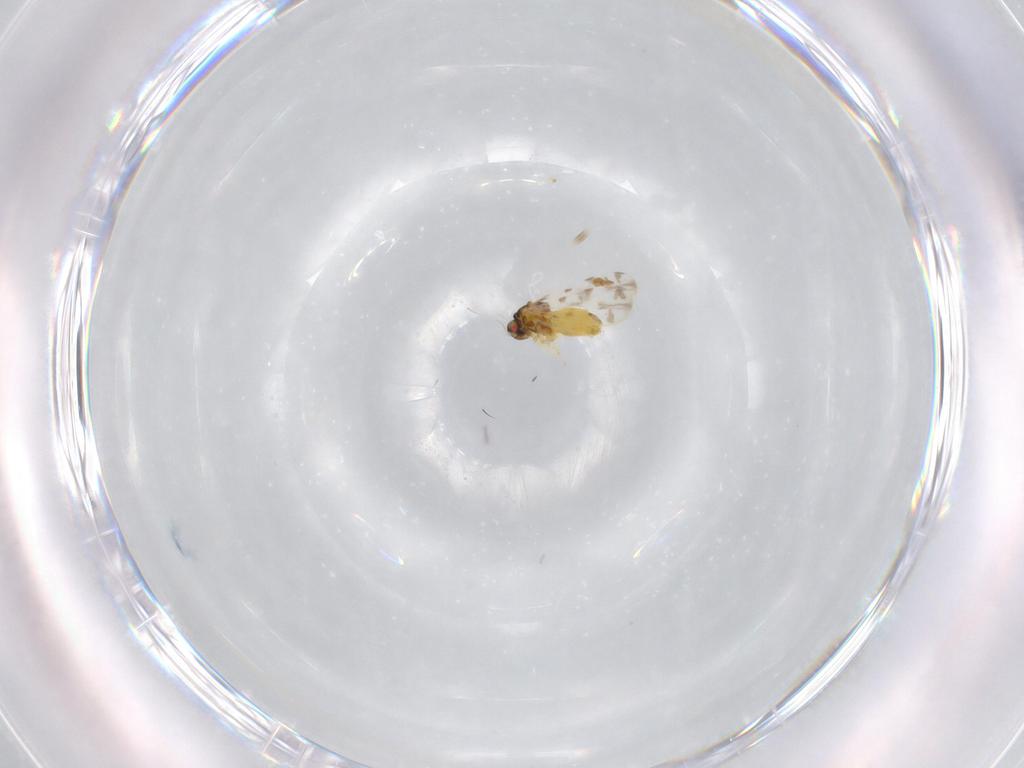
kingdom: Animalia
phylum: Arthropoda
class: Insecta
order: Hemiptera
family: Aleyrodidae
